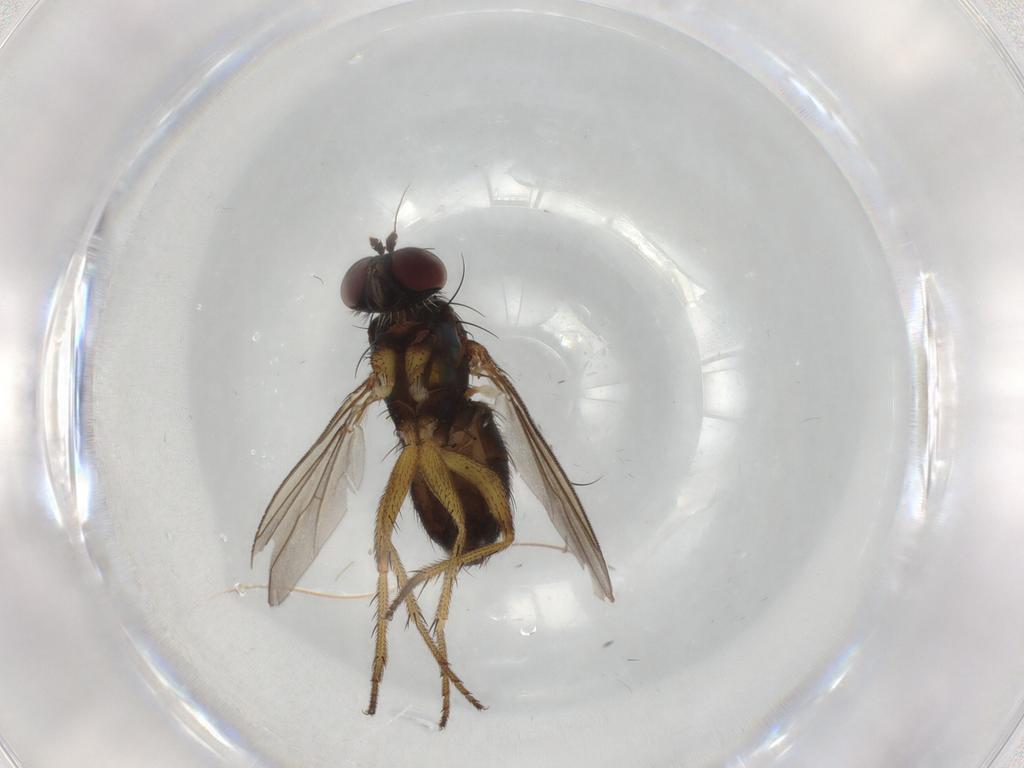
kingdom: Animalia
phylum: Arthropoda
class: Insecta
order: Diptera
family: Dolichopodidae
